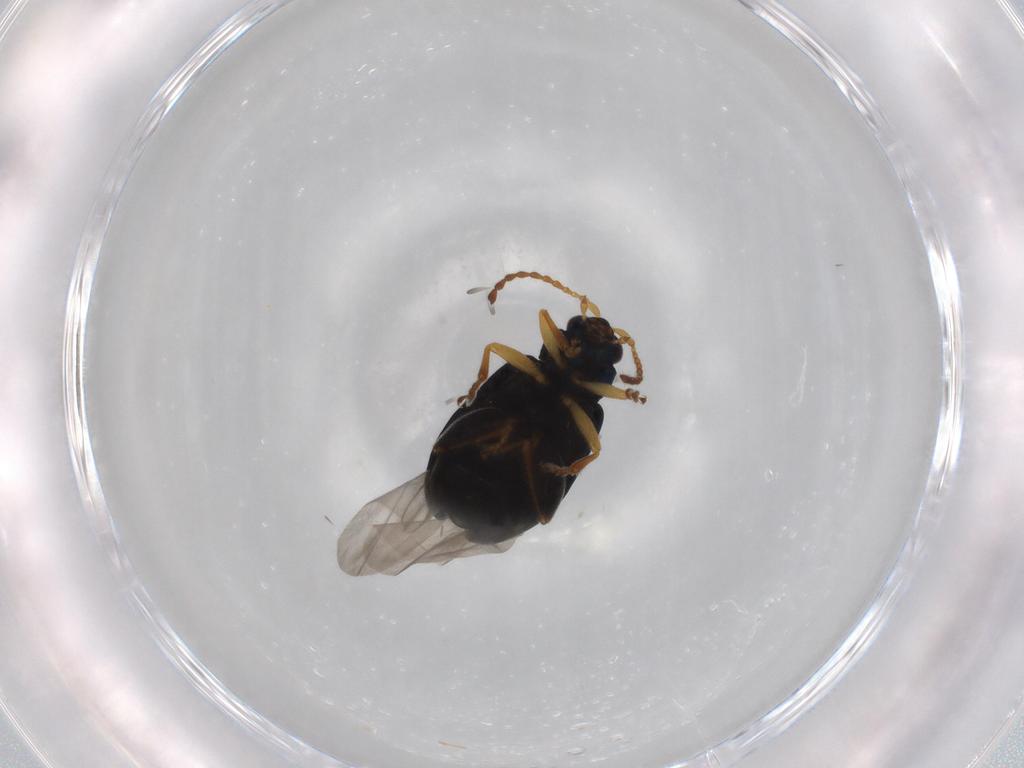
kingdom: Animalia
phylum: Arthropoda
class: Insecta
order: Coleoptera
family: Chrysomelidae
